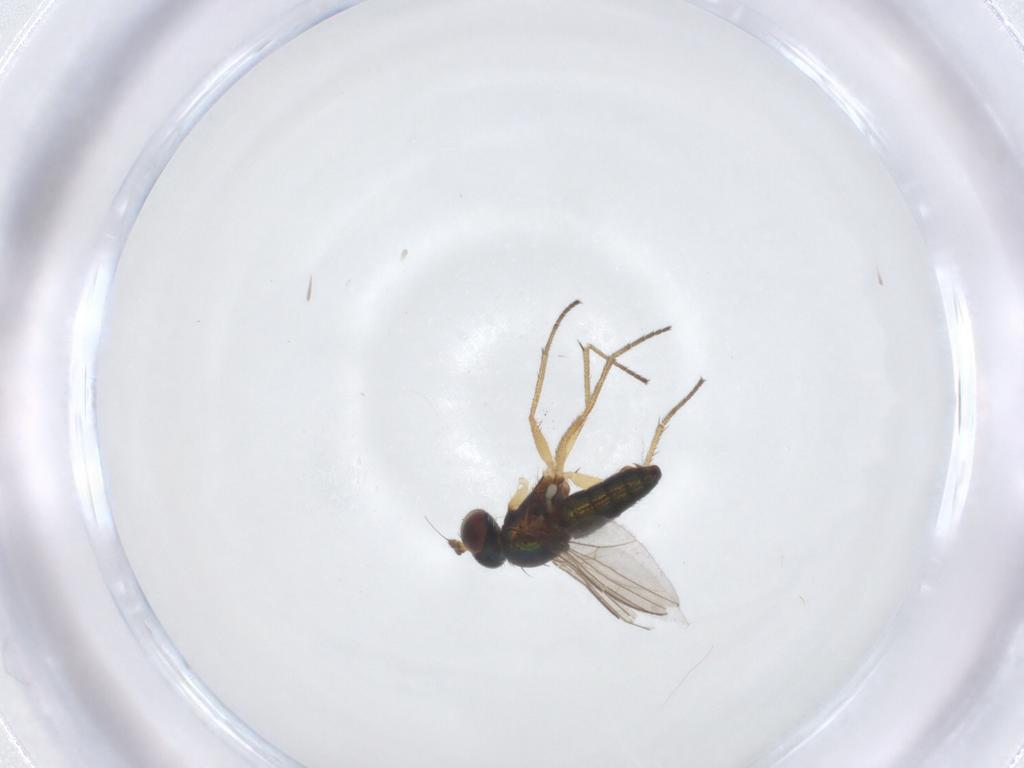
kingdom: Animalia
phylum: Arthropoda
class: Insecta
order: Diptera
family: Dolichopodidae
